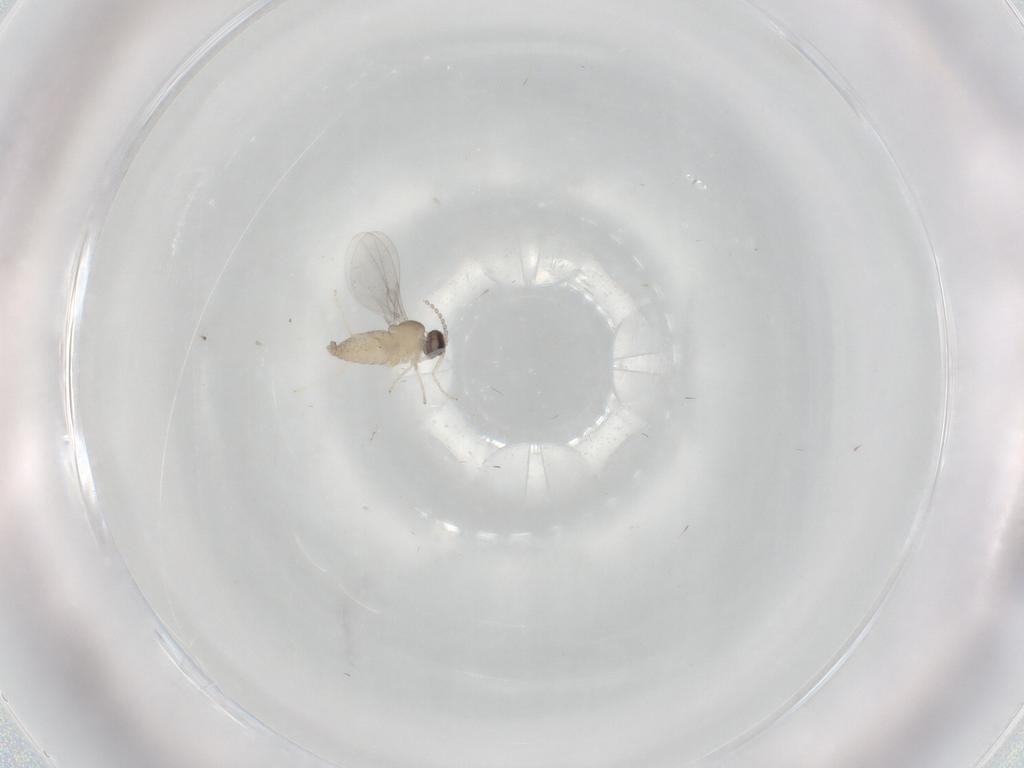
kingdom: Animalia
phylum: Arthropoda
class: Insecta
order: Diptera
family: Cecidomyiidae
